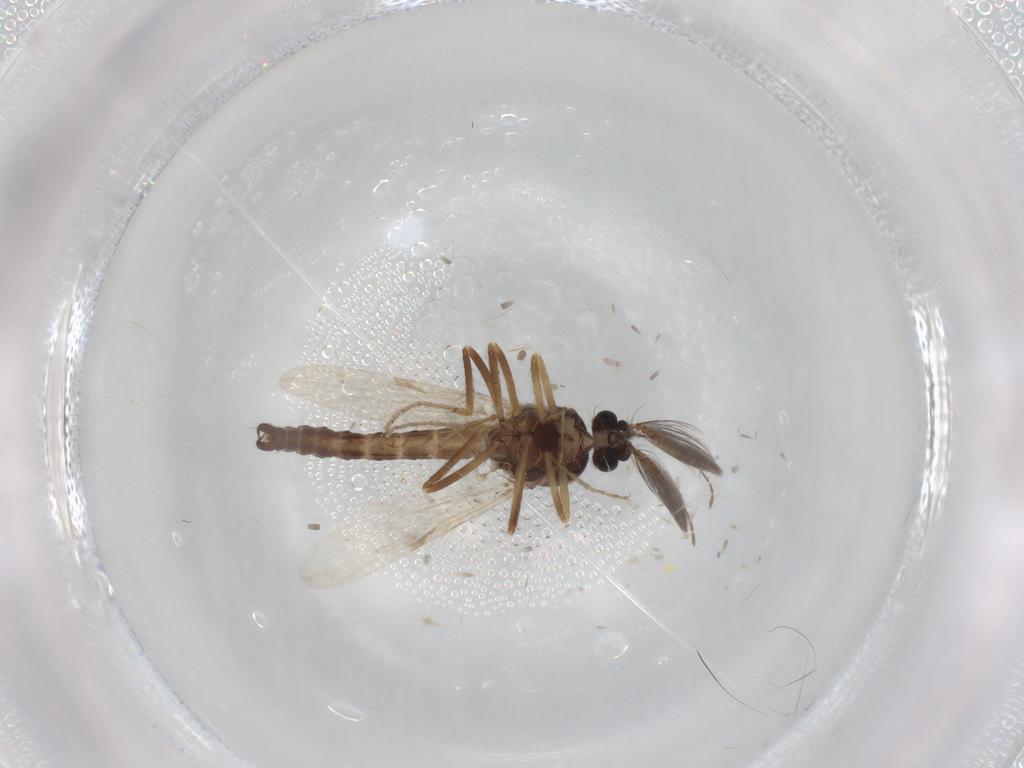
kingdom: Animalia
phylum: Arthropoda
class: Insecta
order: Diptera
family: Ceratopogonidae
